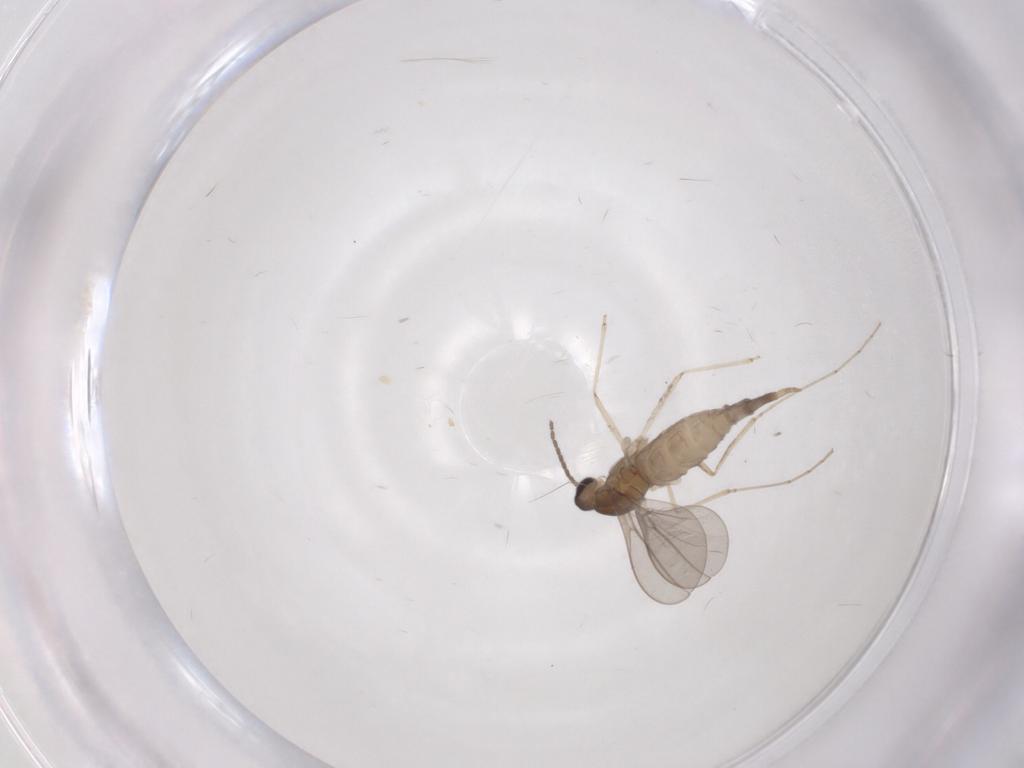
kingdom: Animalia
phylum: Arthropoda
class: Insecta
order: Diptera
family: Cecidomyiidae
